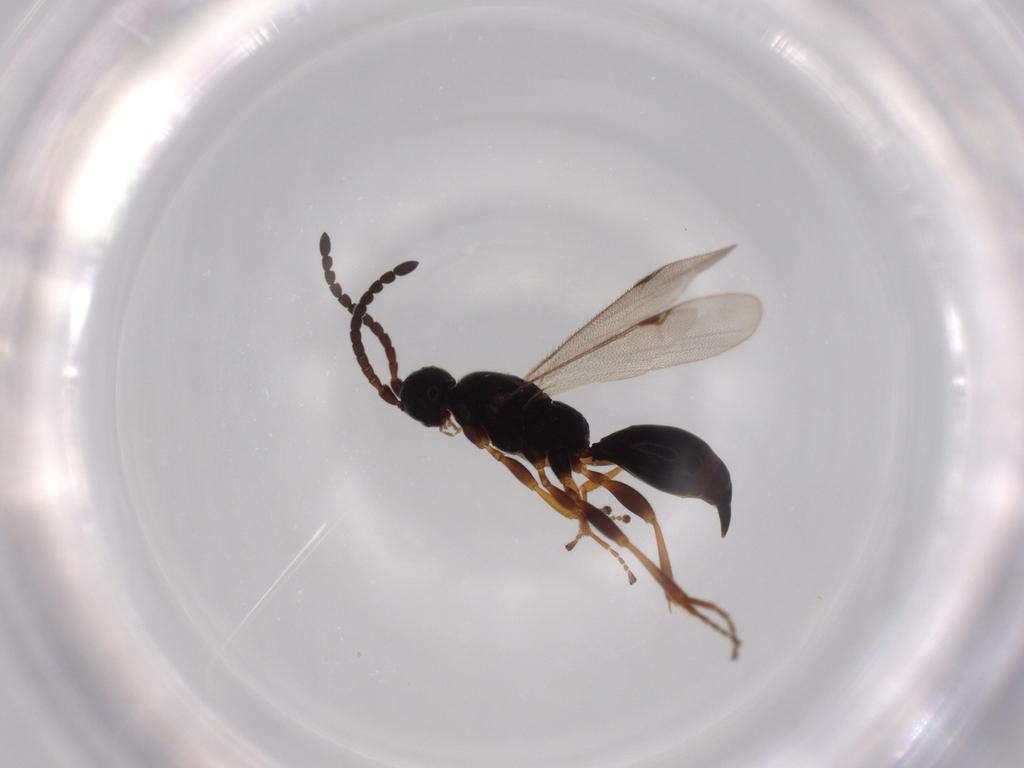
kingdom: Animalia
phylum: Arthropoda
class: Insecta
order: Hymenoptera
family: Proctotrupidae
